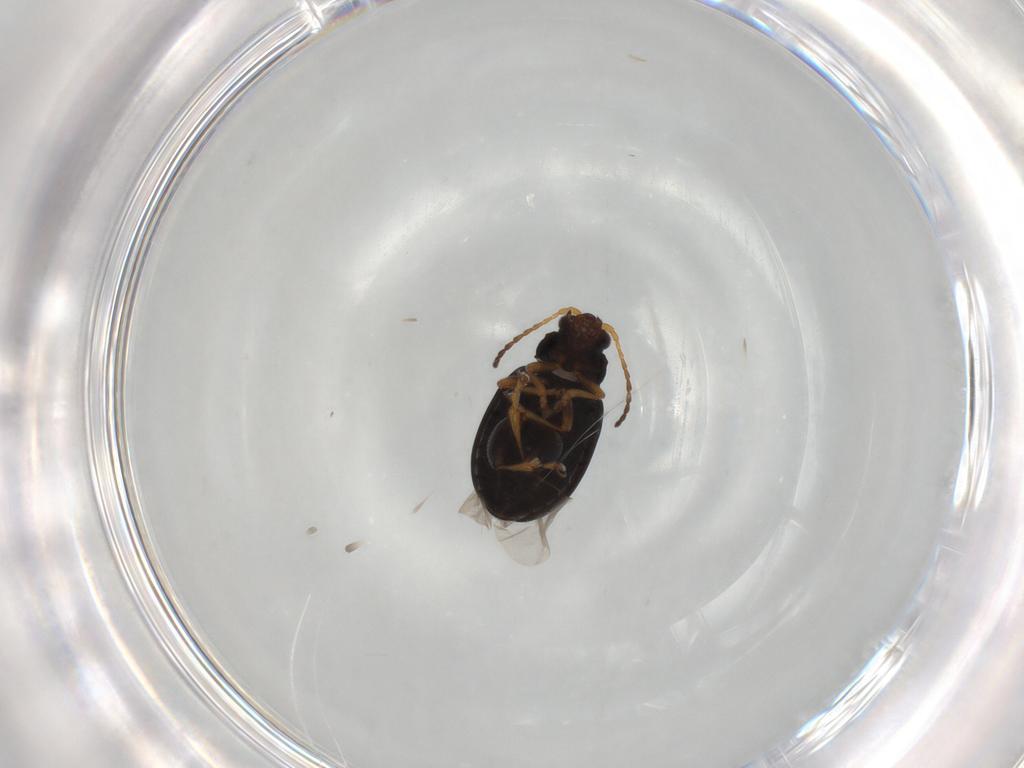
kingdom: Animalia
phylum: Arthropoda
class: Insecta
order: Coleoptera
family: Chrysomelidae
